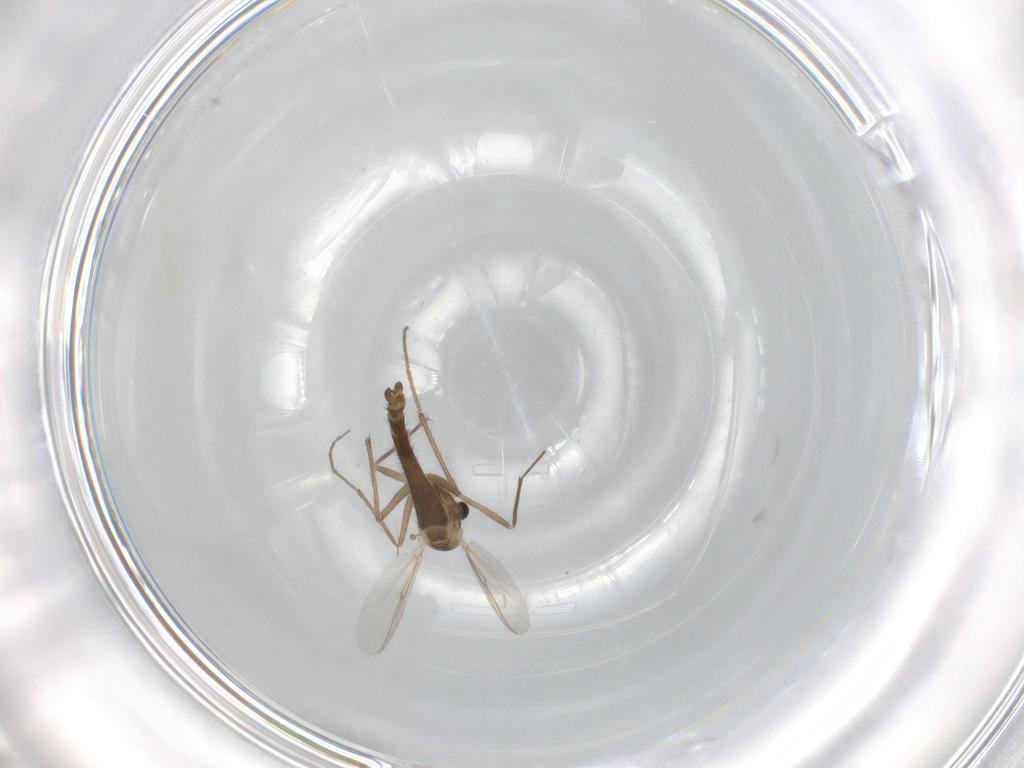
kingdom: Animalia
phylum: Arthropoda
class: Insecta
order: Diptera
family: Chironomidae
